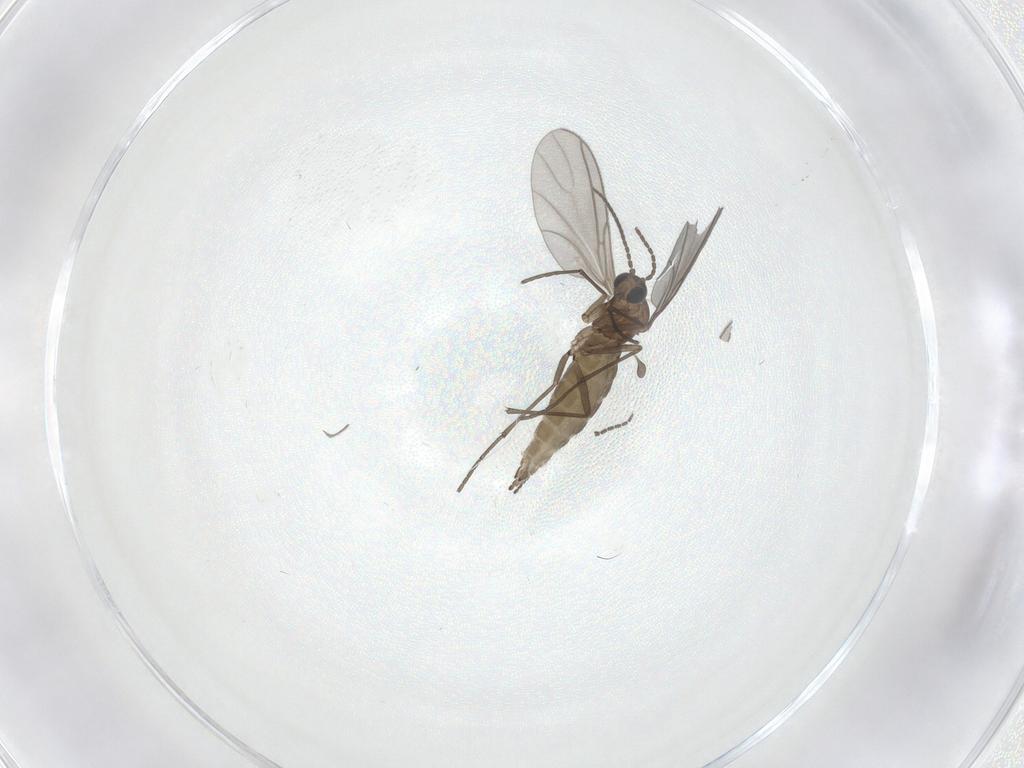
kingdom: Animalia
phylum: Arthropoda
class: Insecta
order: Diptera
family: Sciaridae
